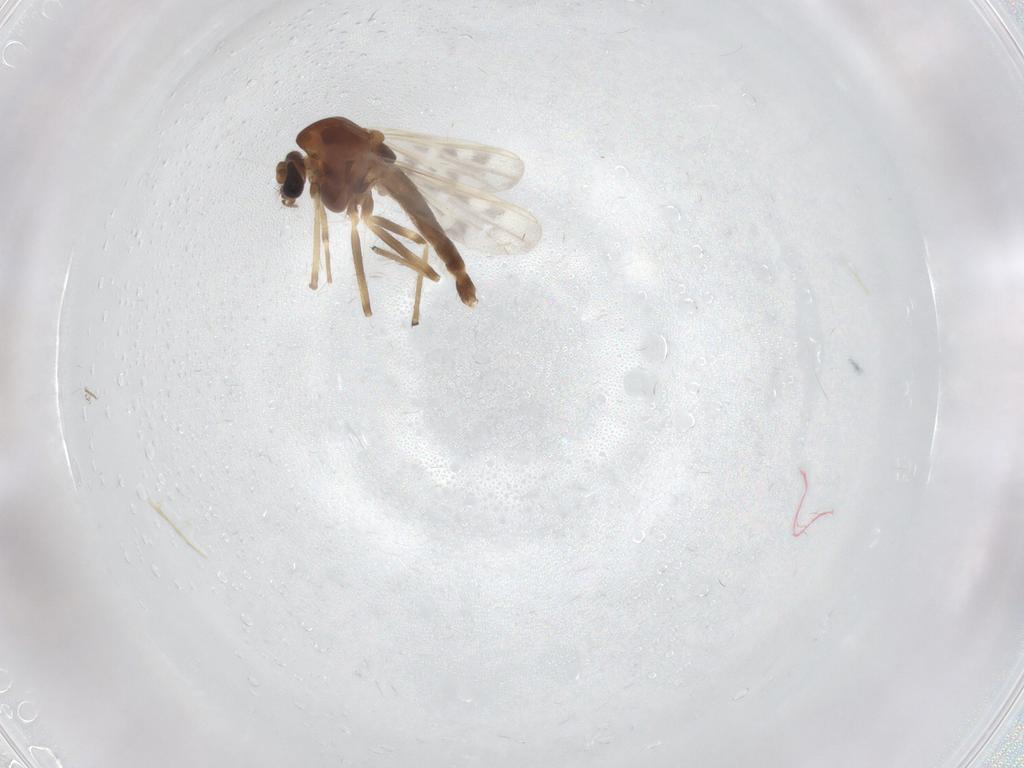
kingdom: Animalia
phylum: Arthropoda
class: Insecta
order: Diptera
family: Chironomidae
